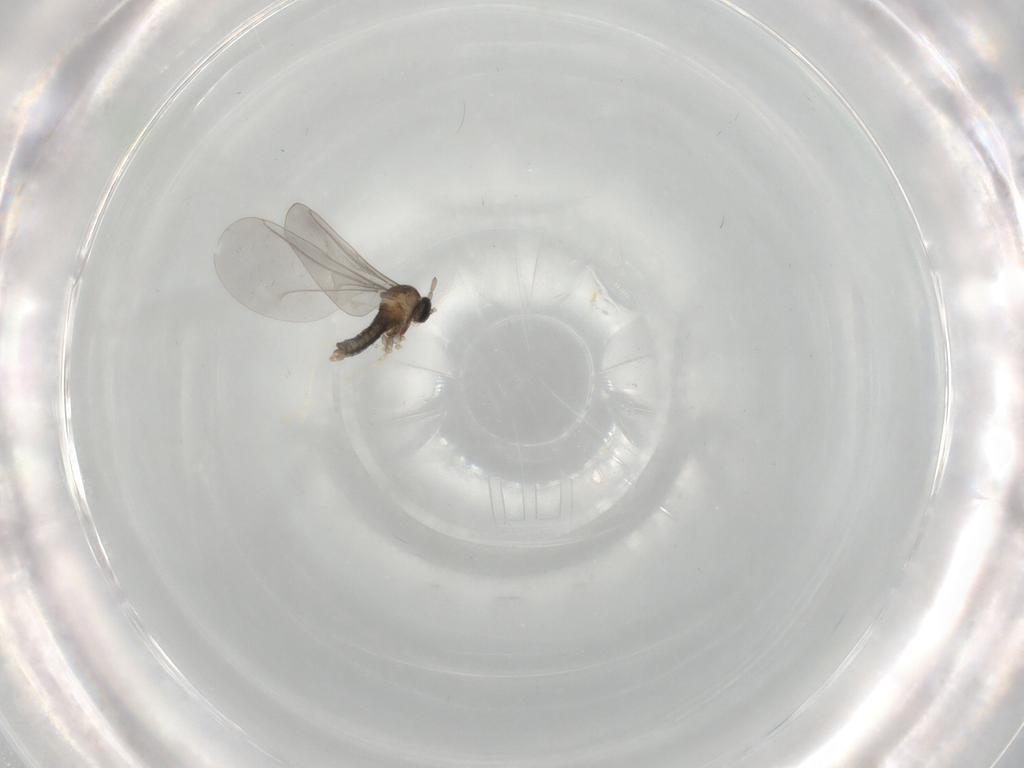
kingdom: Animalia
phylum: Arthropoda
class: Insecta
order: Diptera
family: Cecidomyiidae
